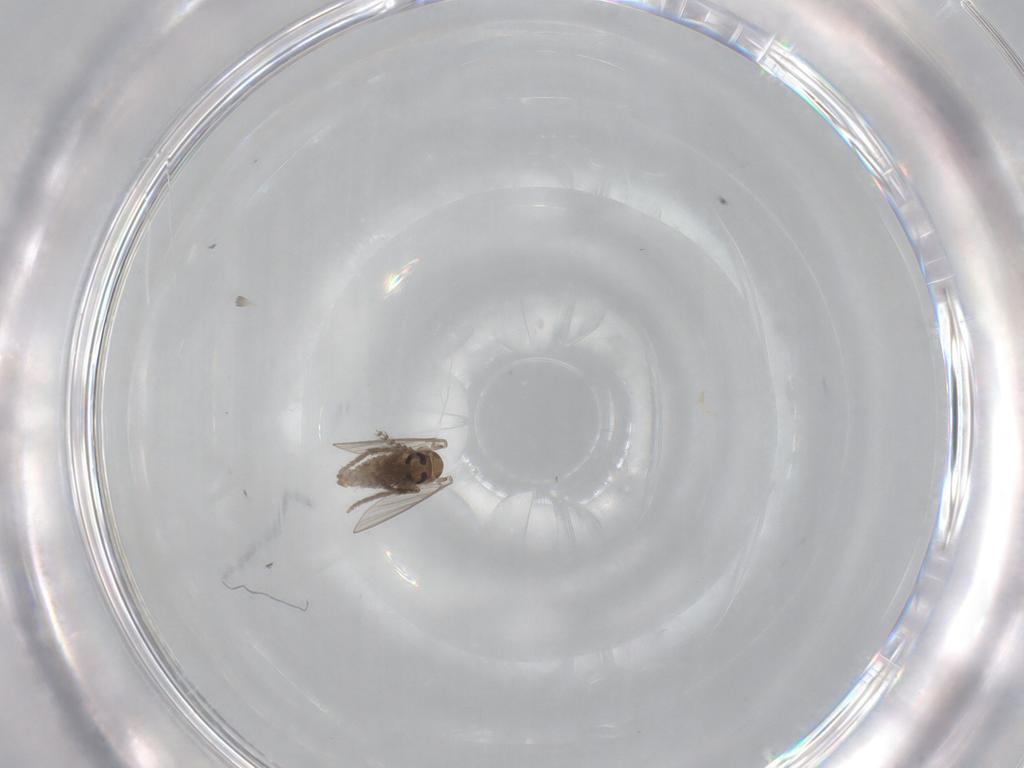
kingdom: Animalia
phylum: Arthropoda
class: Insecta
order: Diptera
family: Psychodidae
